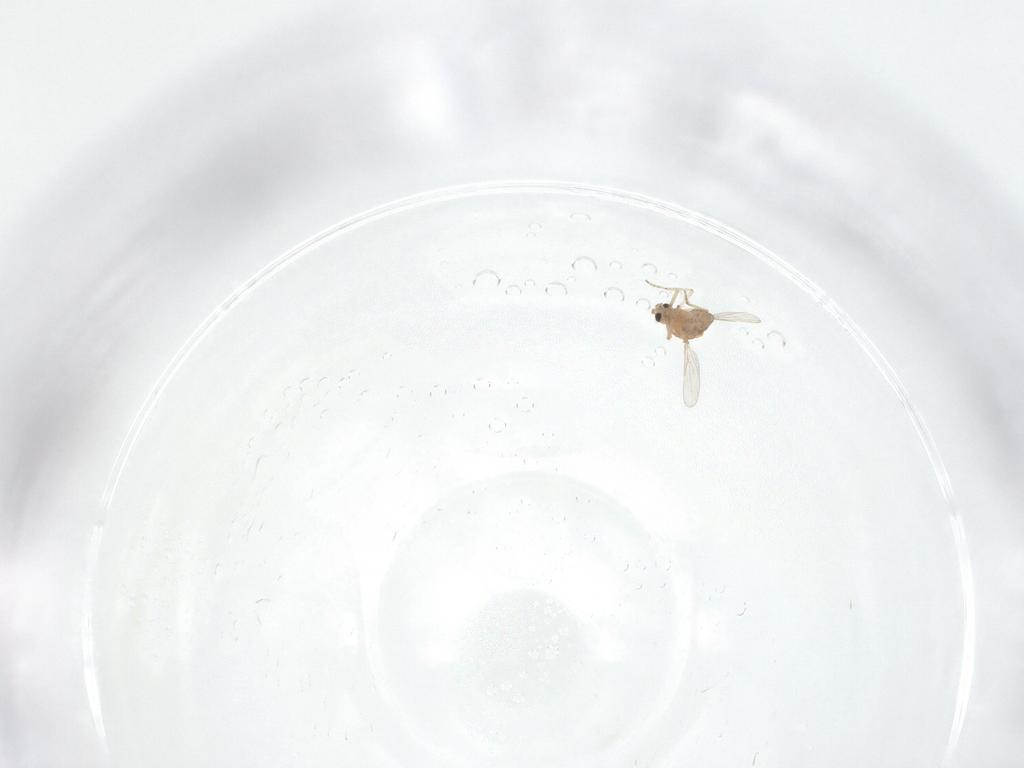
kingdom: Animalia
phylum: Arthropoda
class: Insecta
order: Diptera
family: Ceratopogonidae
